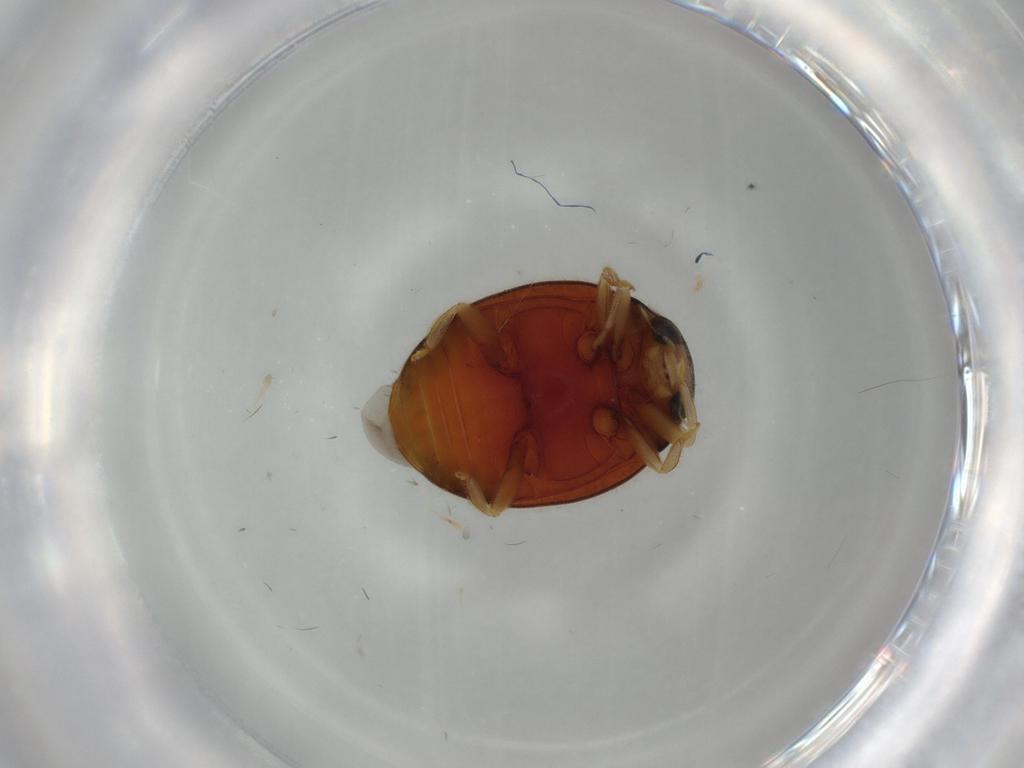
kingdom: Animalia
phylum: Arthropoda
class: Insecta
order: Coleoptera
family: Coccinellidae
